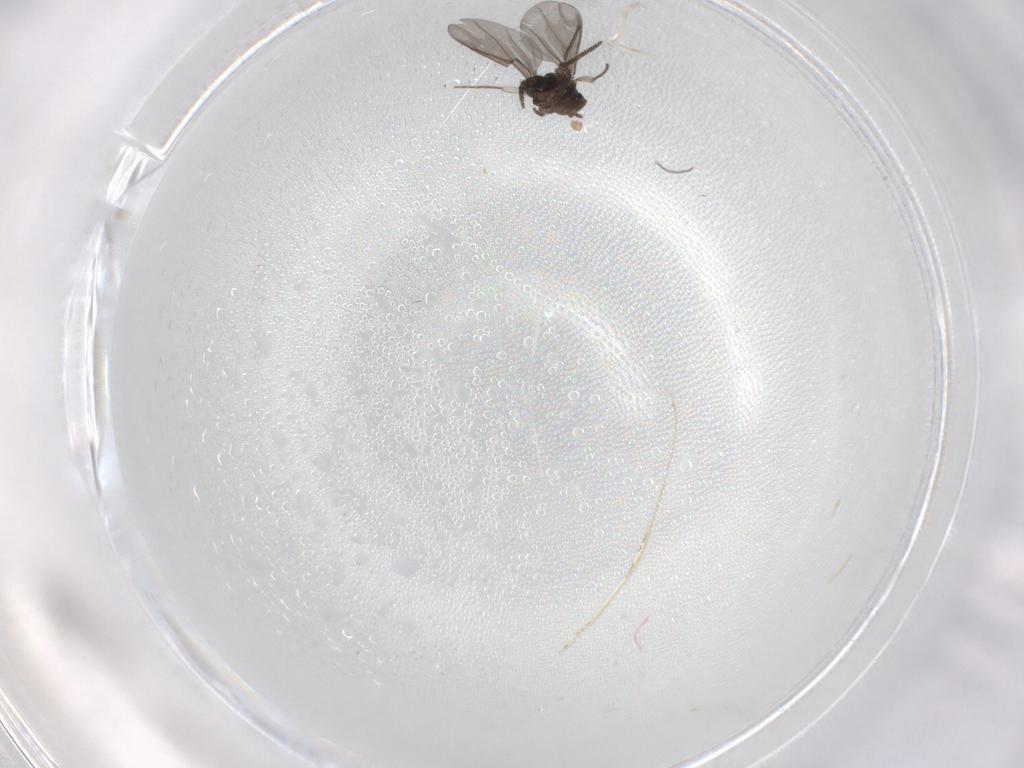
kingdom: Animalia
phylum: Arthropoda
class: Insecta
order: Diptera
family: Phoridae
